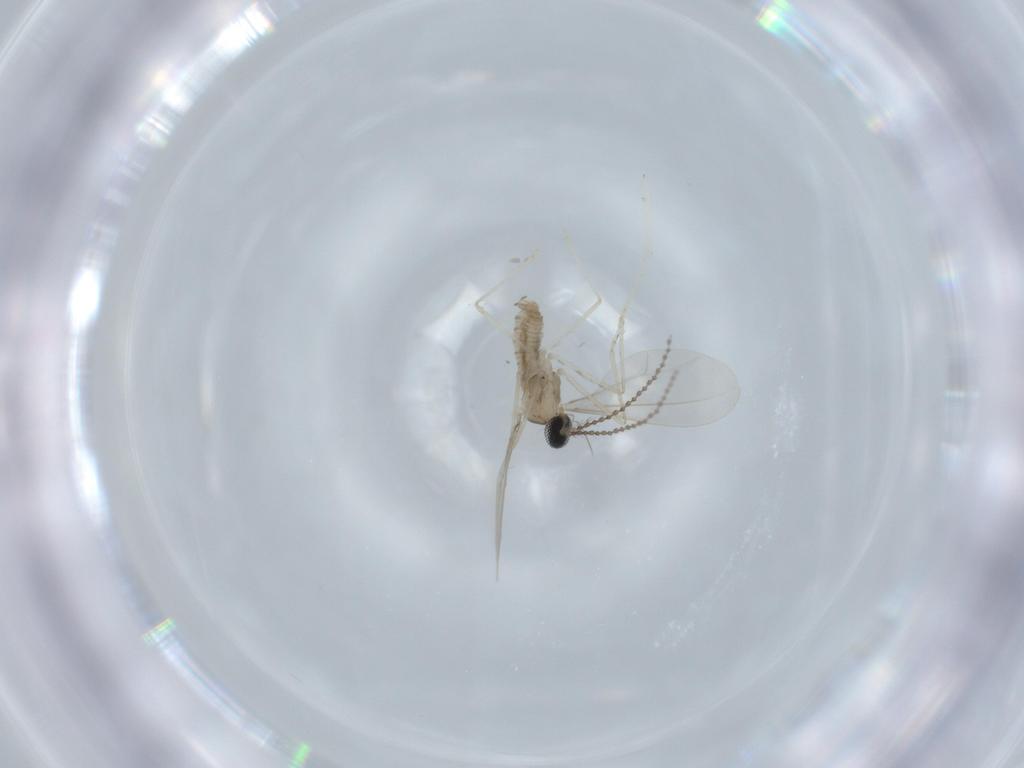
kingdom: Animalia
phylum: Arthropoda
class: Insecta
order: Diptera
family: Cecidomyiidae
